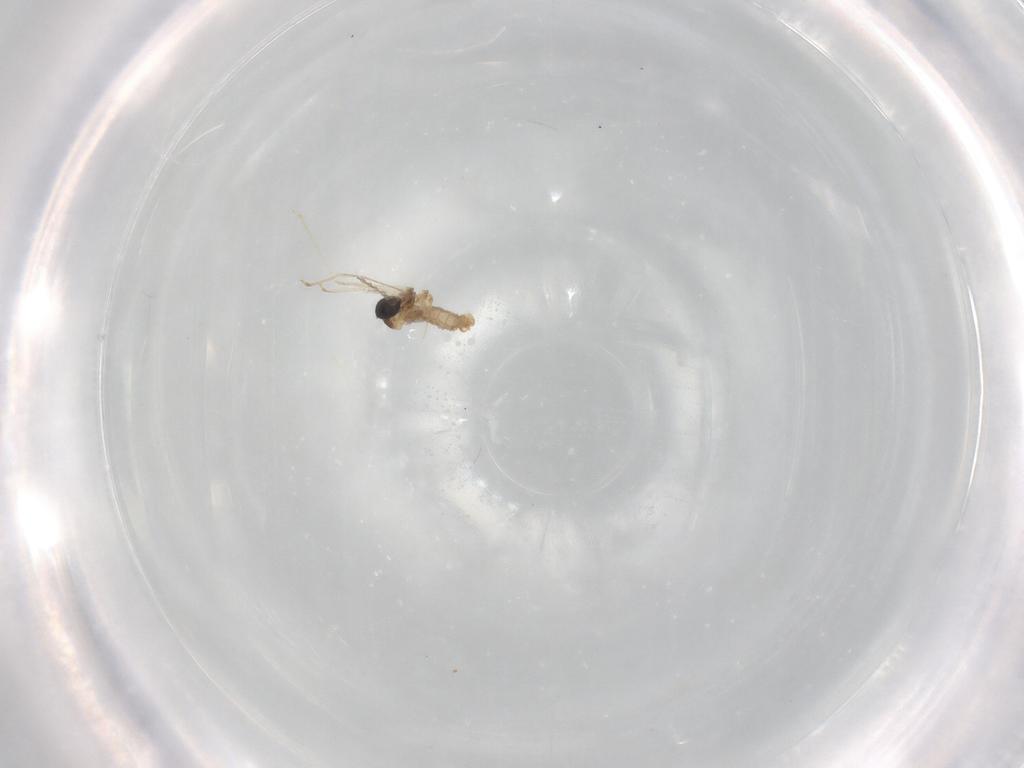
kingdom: Animalia
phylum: Arthropoda
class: Insecta
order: Diptera
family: Cecidomyiidae
